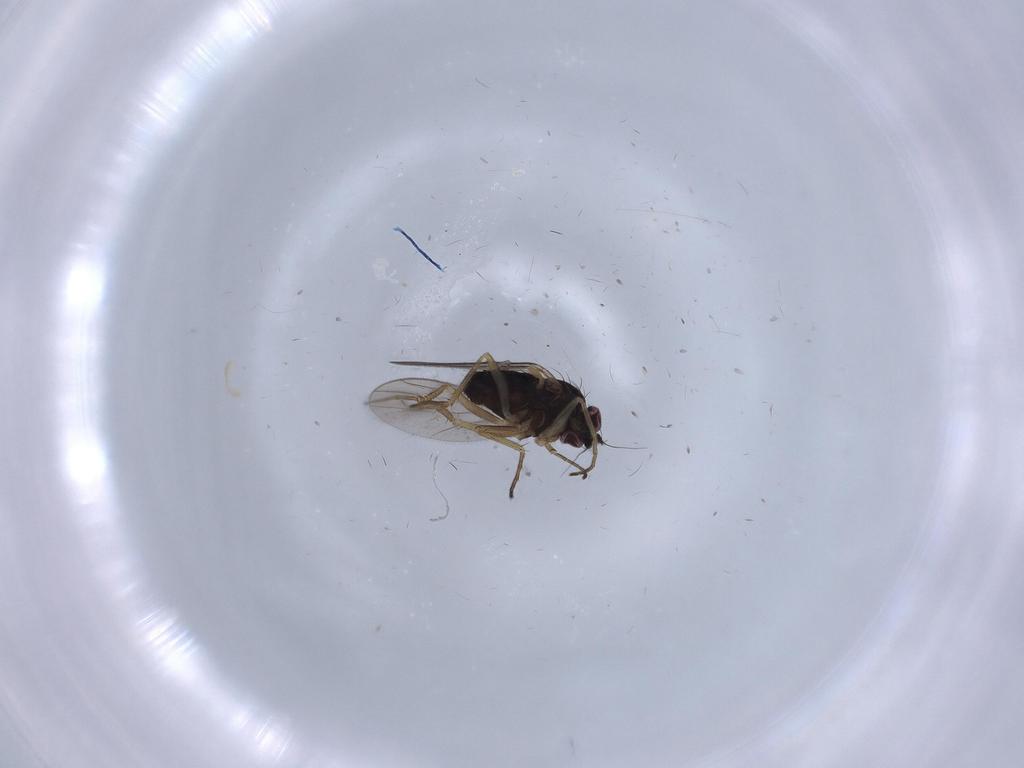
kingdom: Animalia
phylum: Arthropoda
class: Insecta
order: Diptera
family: Dolichopodidae
